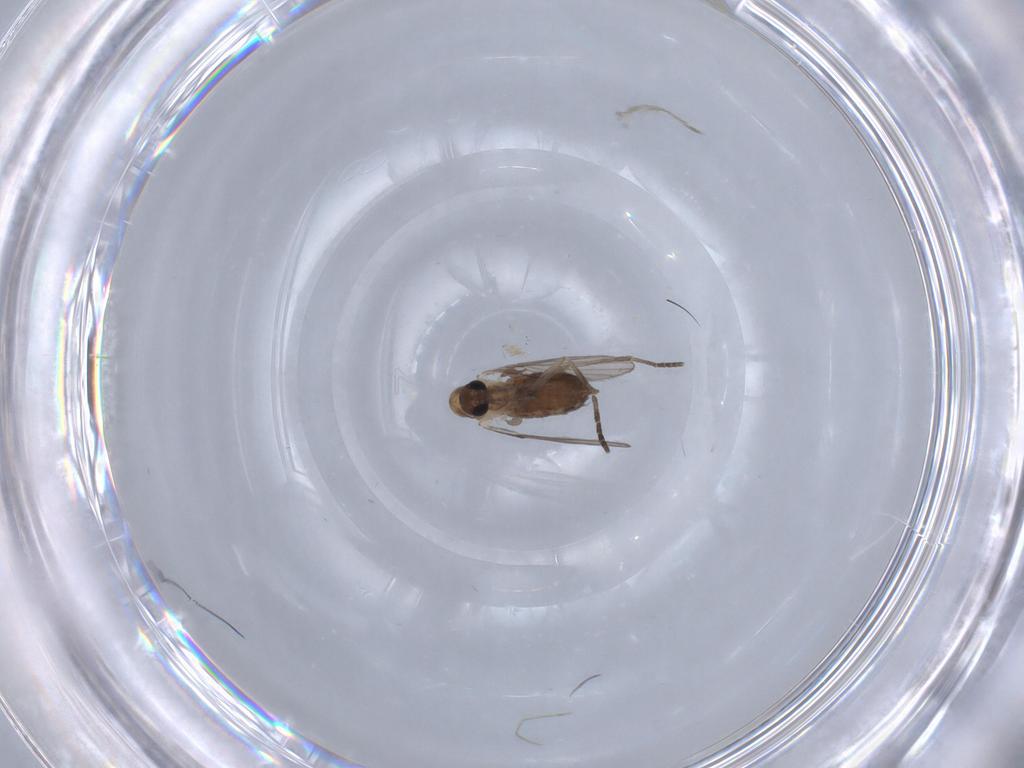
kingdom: Animalia
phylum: Arthropoda
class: Insecta
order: Diptera
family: Psychodidae
